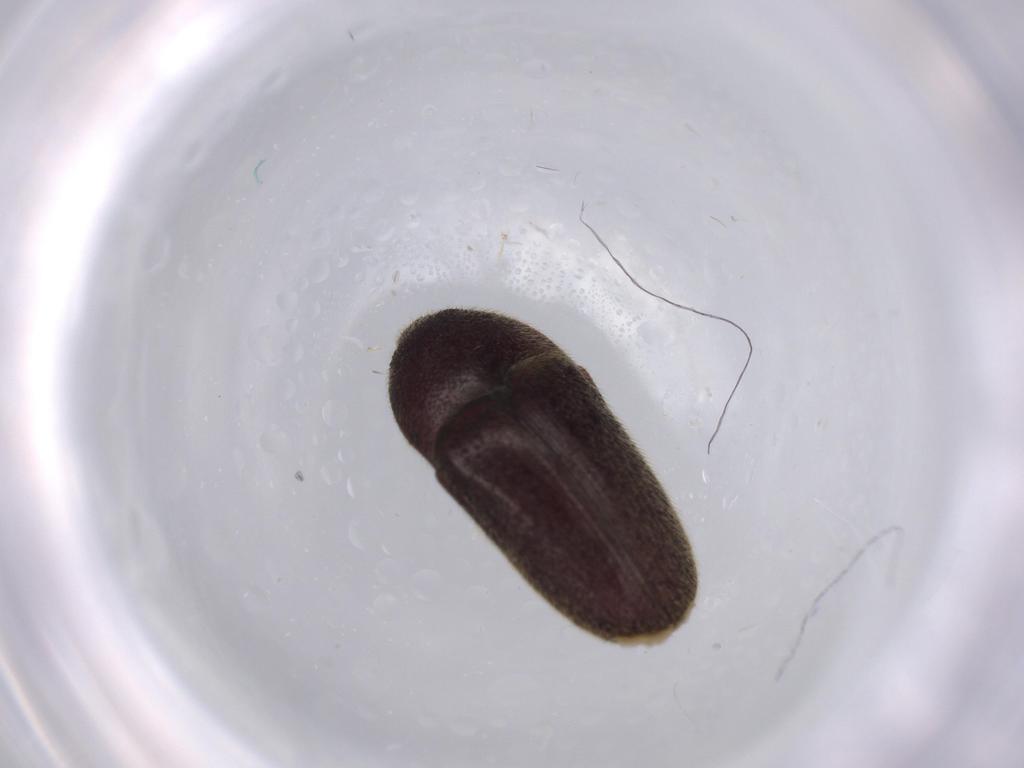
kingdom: Animalia
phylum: Arthropoda
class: Insecta
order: Coleoptera
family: Throscidae
